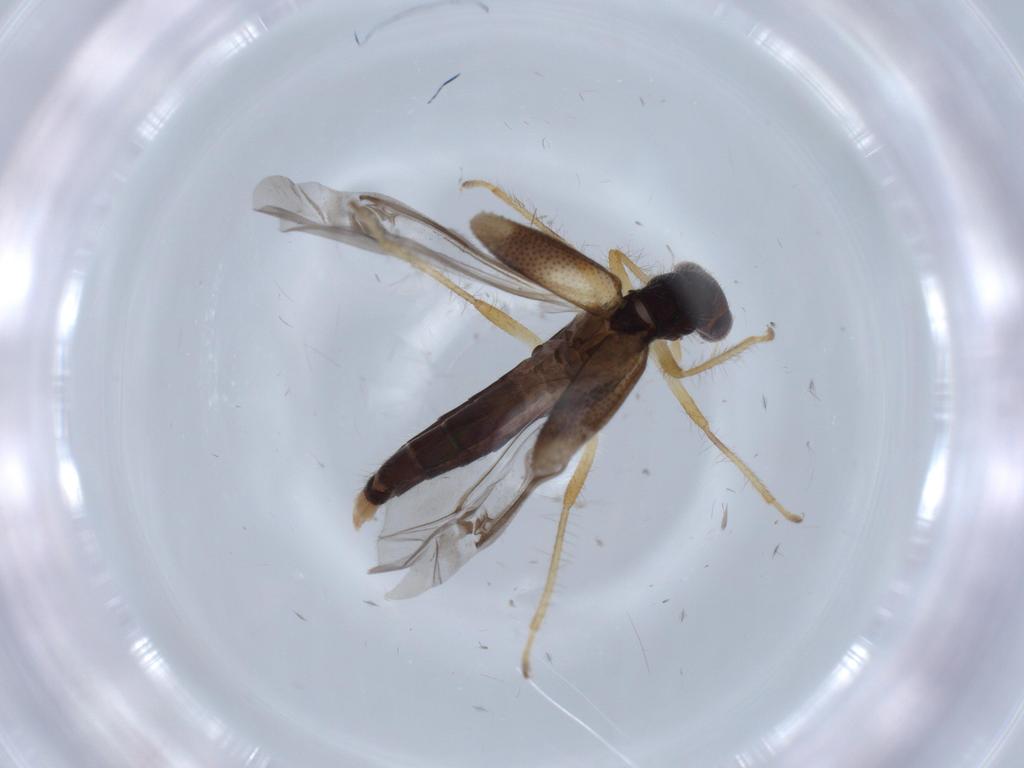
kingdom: Animalia
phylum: Arthropoda
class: Insecta
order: Coleoptera
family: Cleridae
